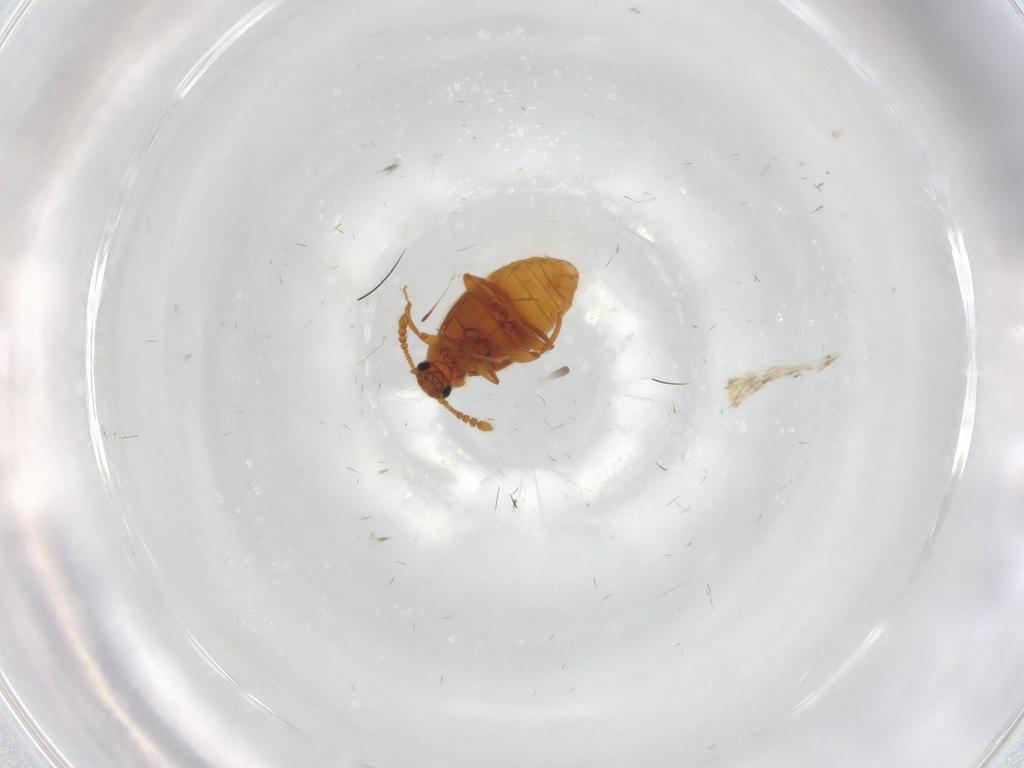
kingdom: Animalia
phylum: Arthropoda
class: Insecta
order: Coleoptera
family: Staphylinidae
